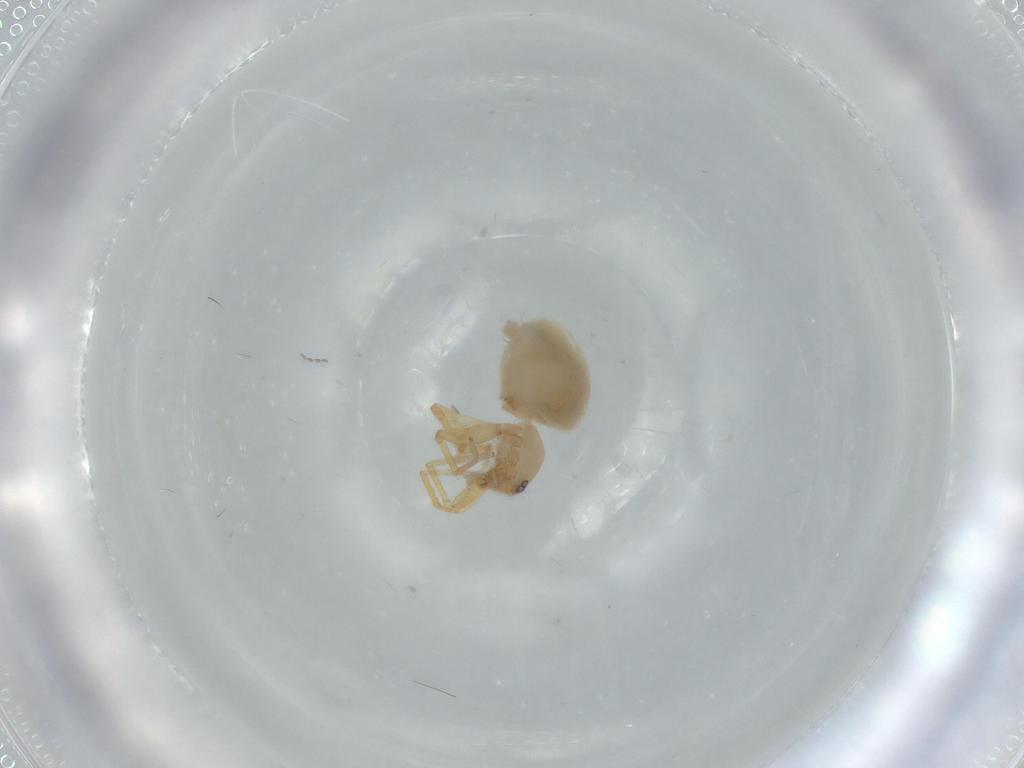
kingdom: Animalia
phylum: Arthropoda
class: Arachnida
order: Araneae
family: Oonopidae
